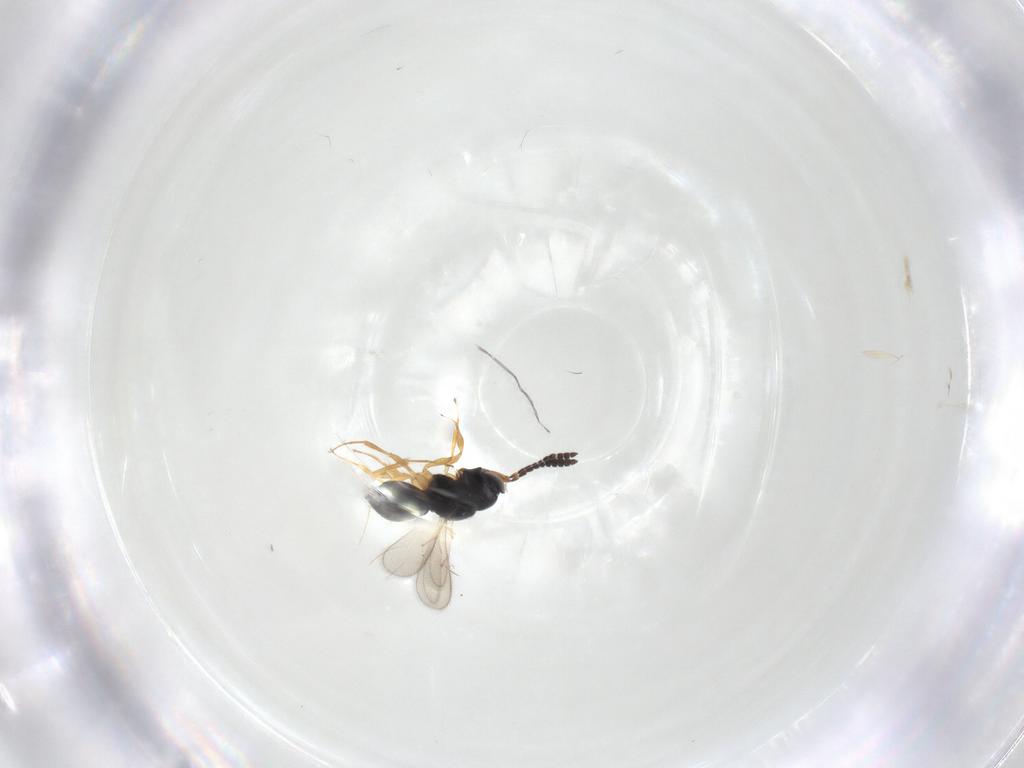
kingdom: Animalia
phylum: Arthropoda
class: Insecta
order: Hymenoptera
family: Scelionidae
